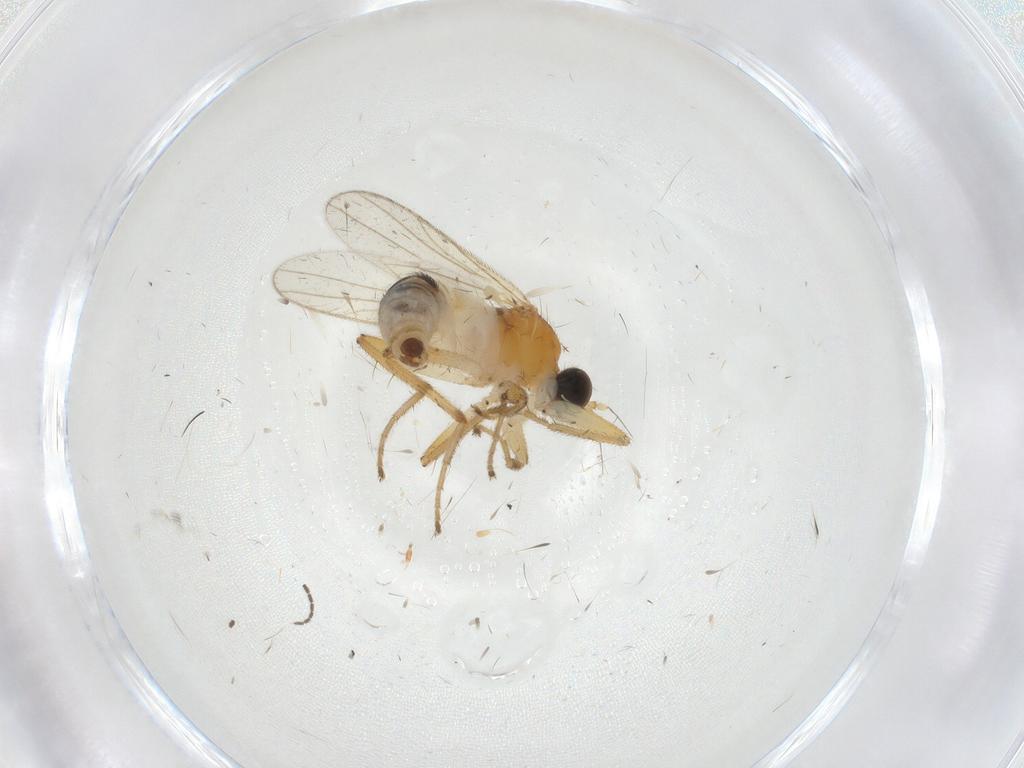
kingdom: Animalia
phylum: Arthropoda
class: Insecta
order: Diptera
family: Hybotidae
